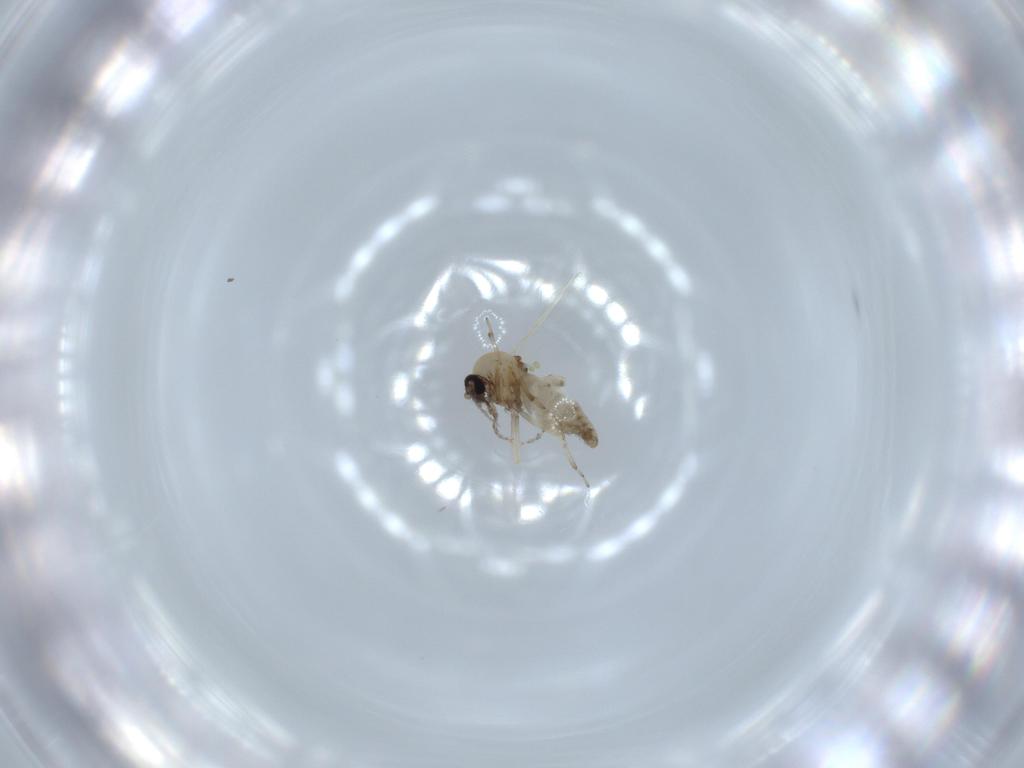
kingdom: Animalia
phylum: Arthropoda
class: Insecta
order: Diptera
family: Ceratopogonidae
